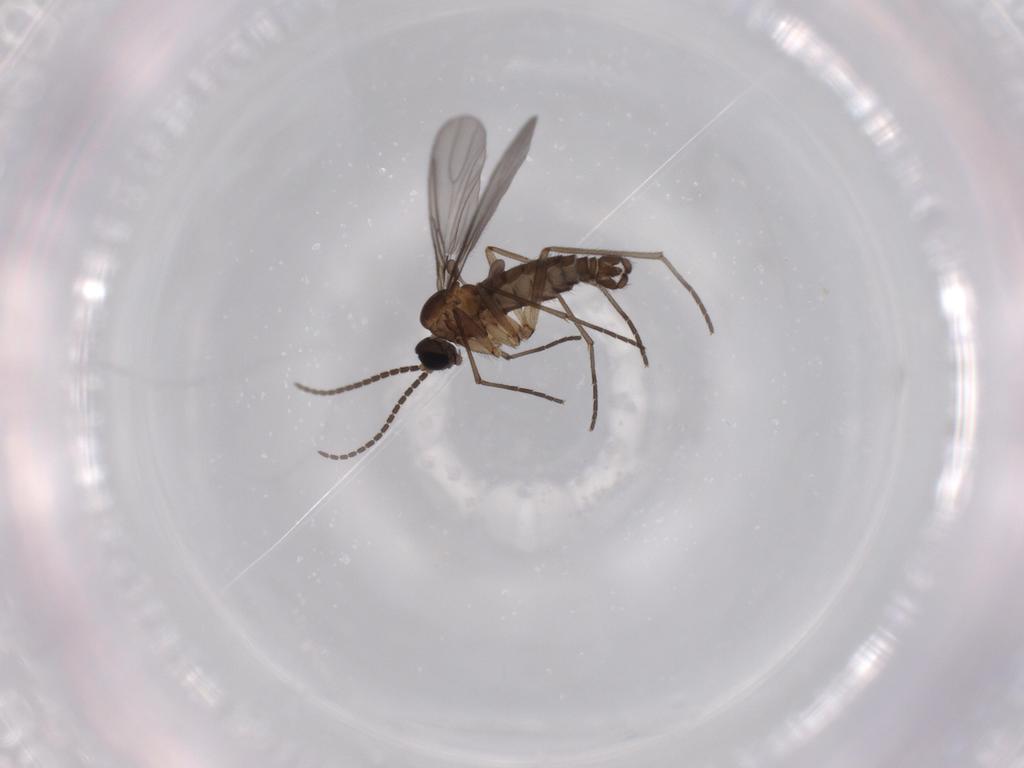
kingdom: Animalia
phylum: Arthropoda
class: Insecta
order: Diptera
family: Sciaridae
